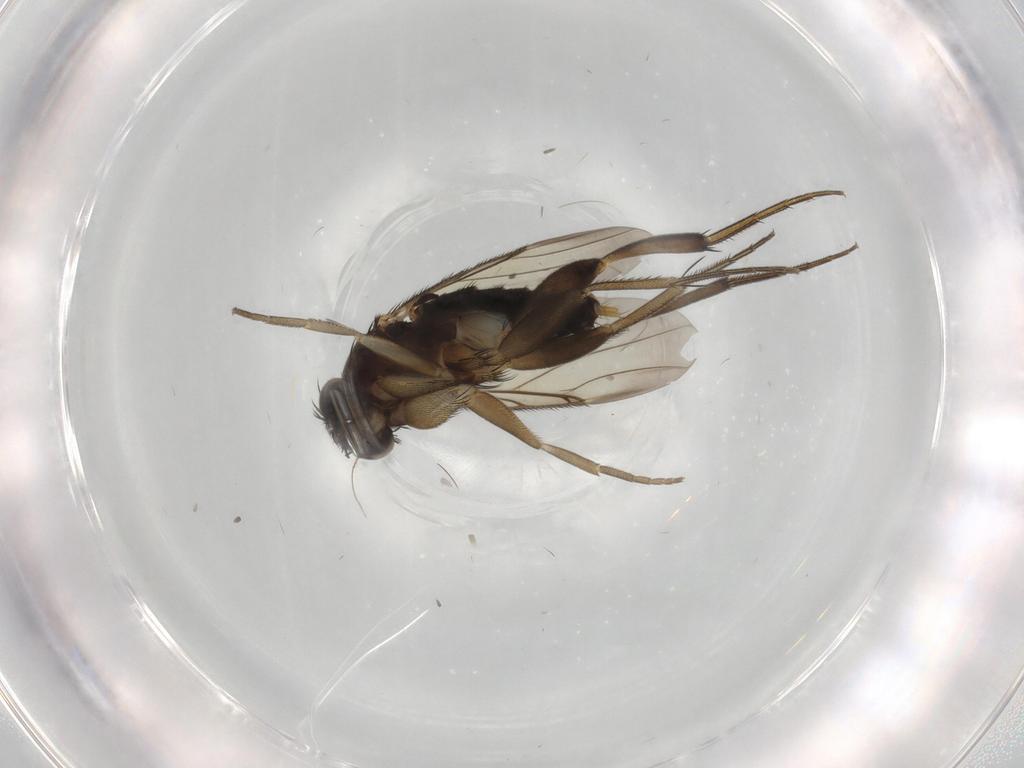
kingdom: Animalia
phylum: Arthropoda
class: Insecta
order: Diptera
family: Phoridae
